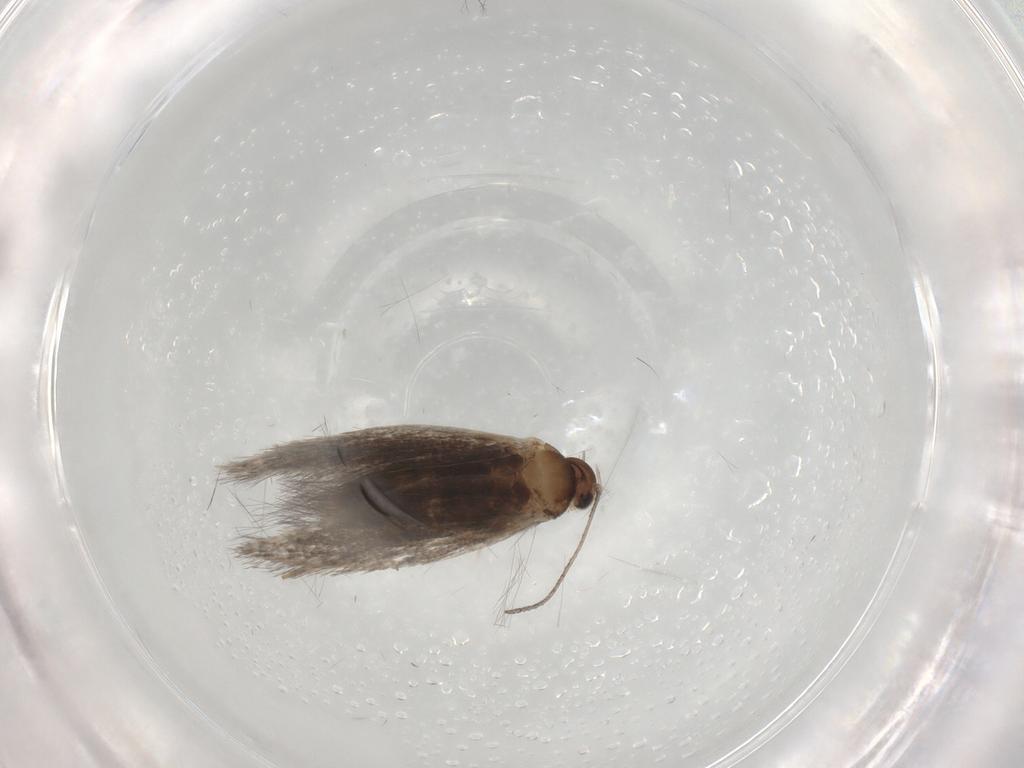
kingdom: Animalia
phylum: Arthropoda
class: Insecta
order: Lepidoptera
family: Elachistidae
